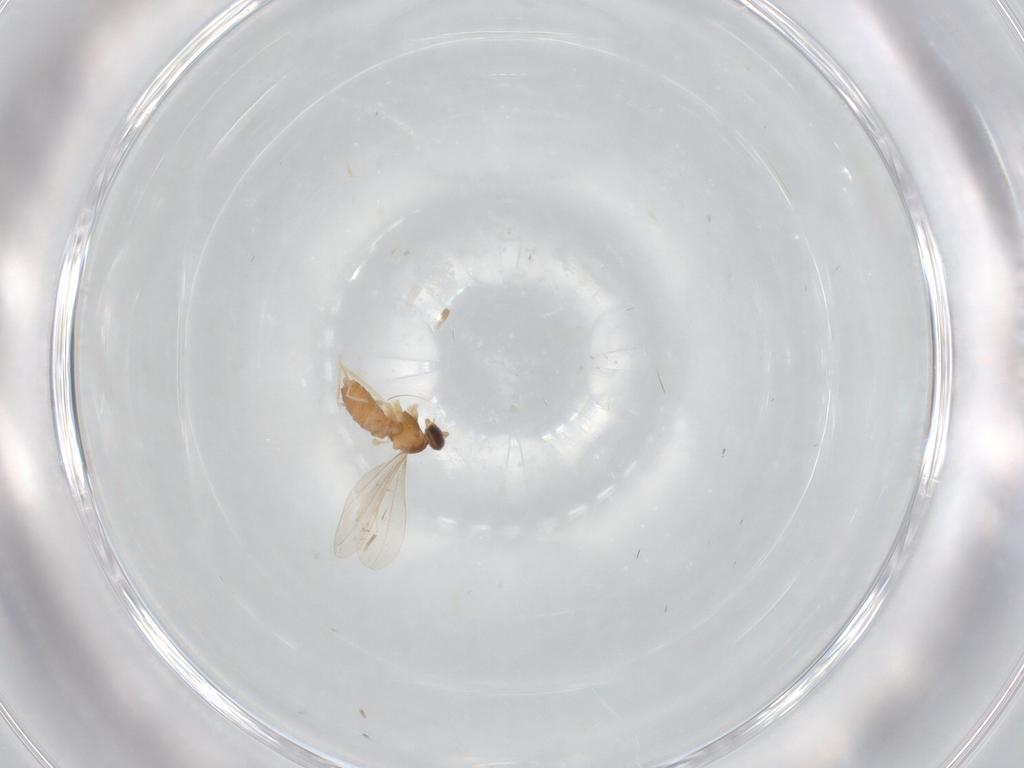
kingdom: Animalia
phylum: Arthropoda
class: Insecta
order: Diptera
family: Cecidomyiidae
